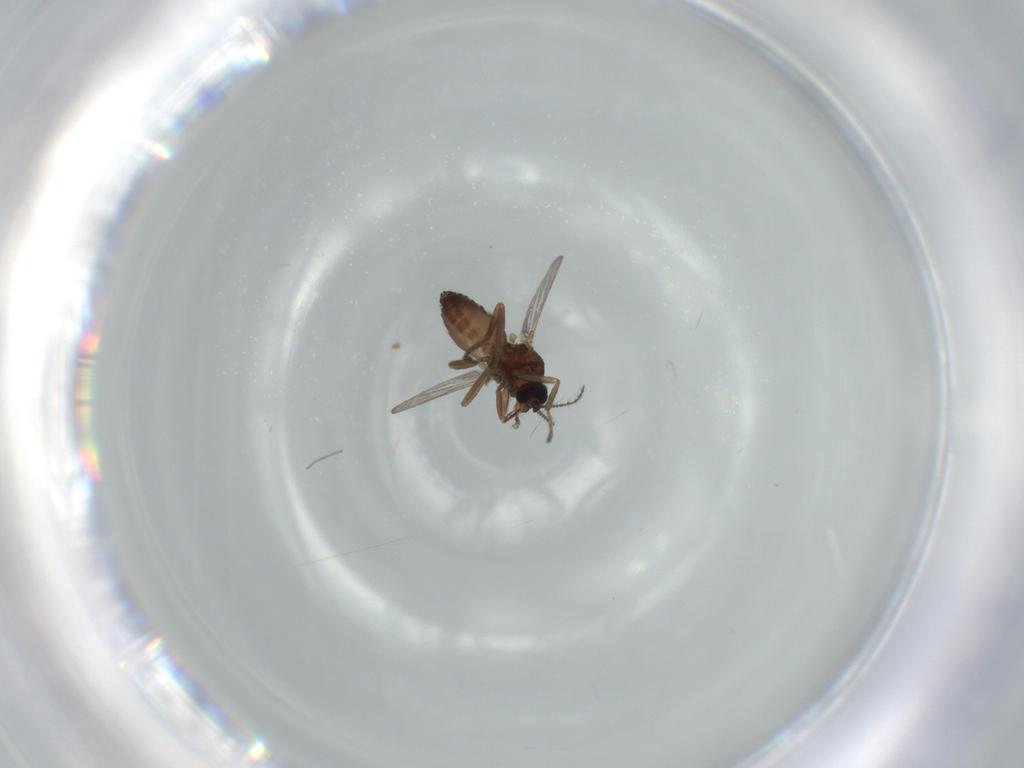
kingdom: Animalia
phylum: Arthropoda
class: Insecta
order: Diptera
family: Ceratopogonidae
